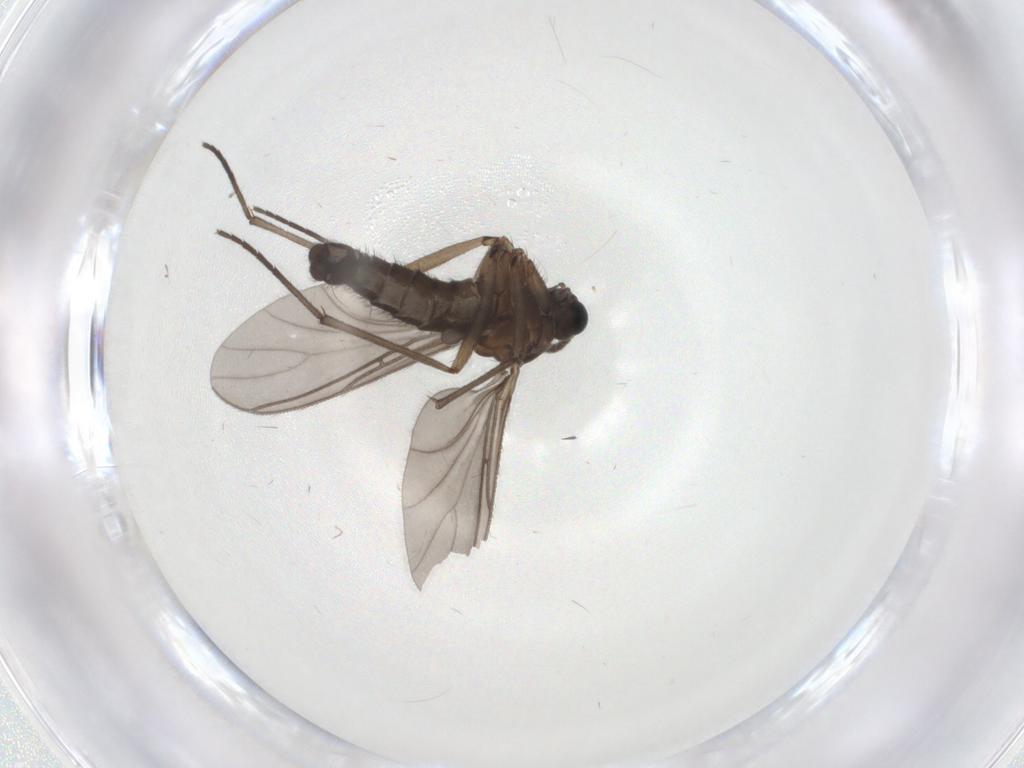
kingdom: Animalia
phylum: Arthropoda
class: Insecta
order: Diptera
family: Sciaridae
